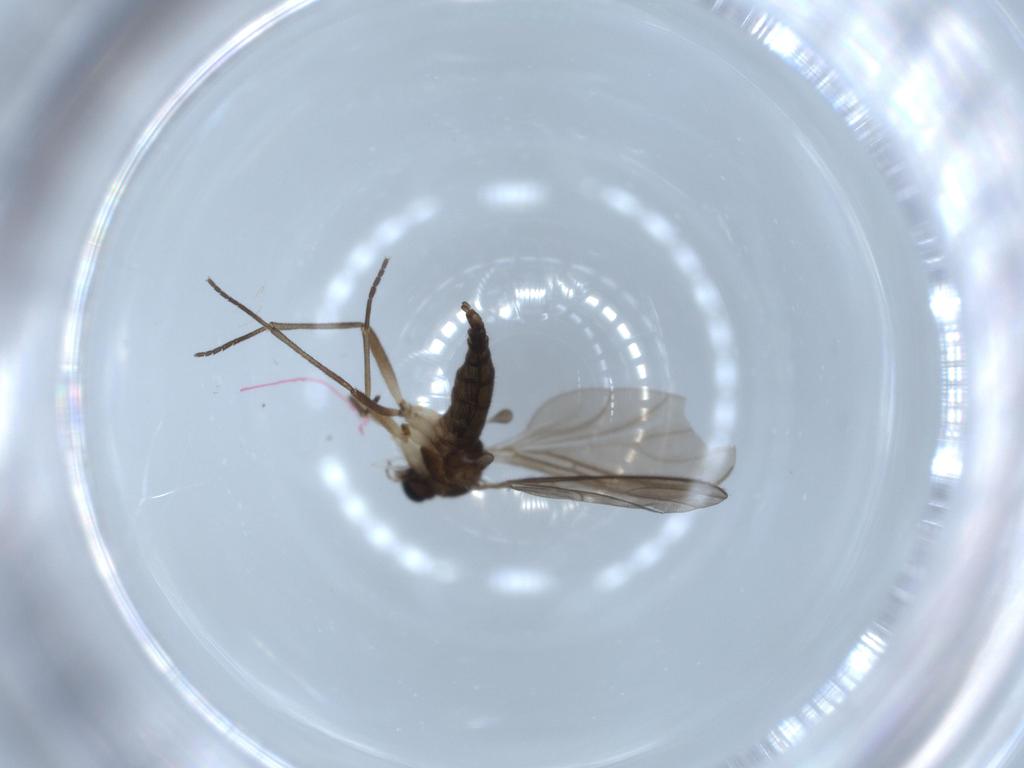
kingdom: Animalia
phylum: Arthropoda
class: Insecta
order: Diptera
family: Sciaridae
